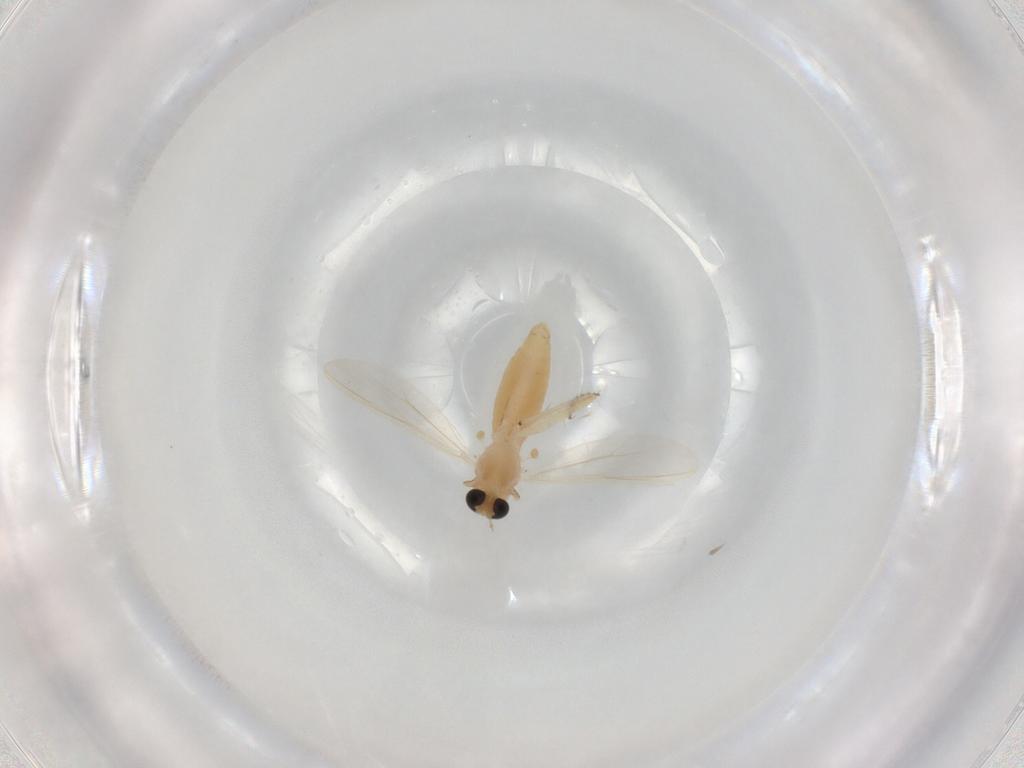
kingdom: Animalia
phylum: Arthropoda
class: Insecta
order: Diptera
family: Chironomidae
